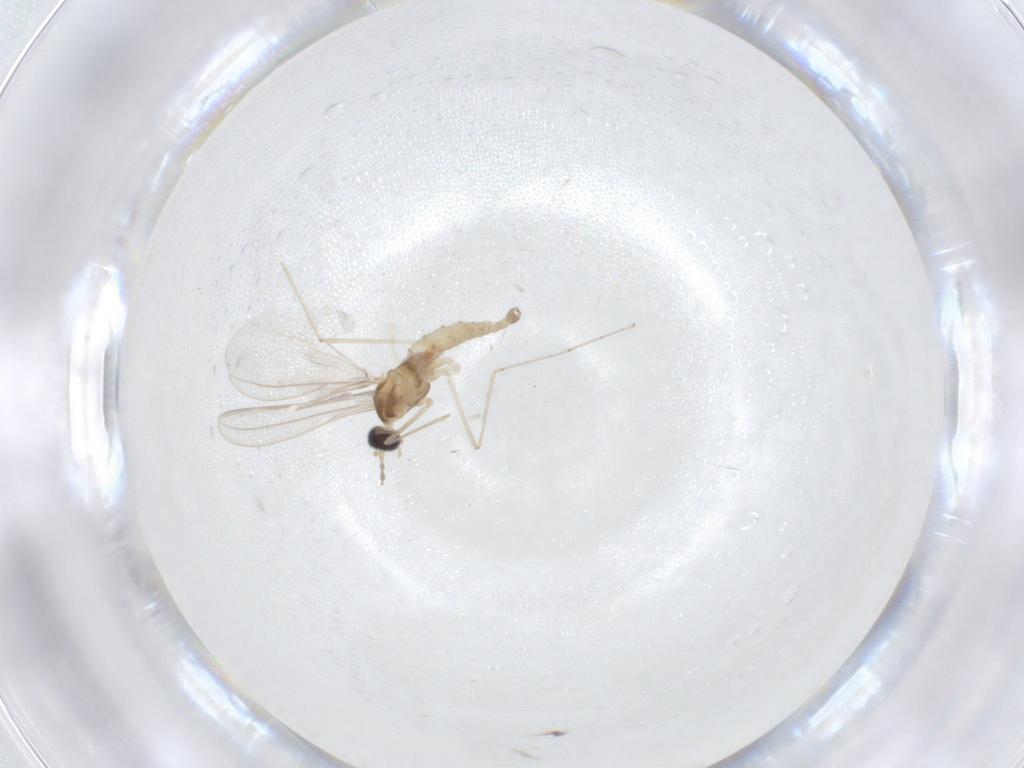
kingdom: Animalia
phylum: Arthropoda
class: Insecta
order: Diptera
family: Cecidomyiidae
